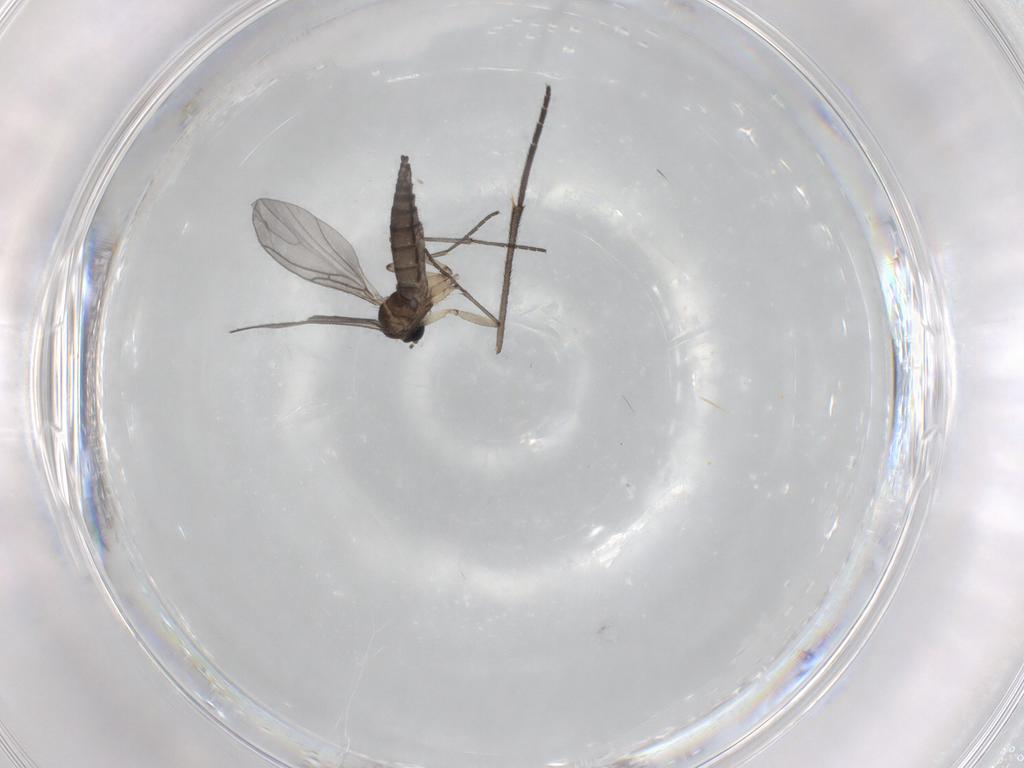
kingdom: Animalia
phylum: Arthropoda
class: Insecta
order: Diptera
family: Sciaridae
